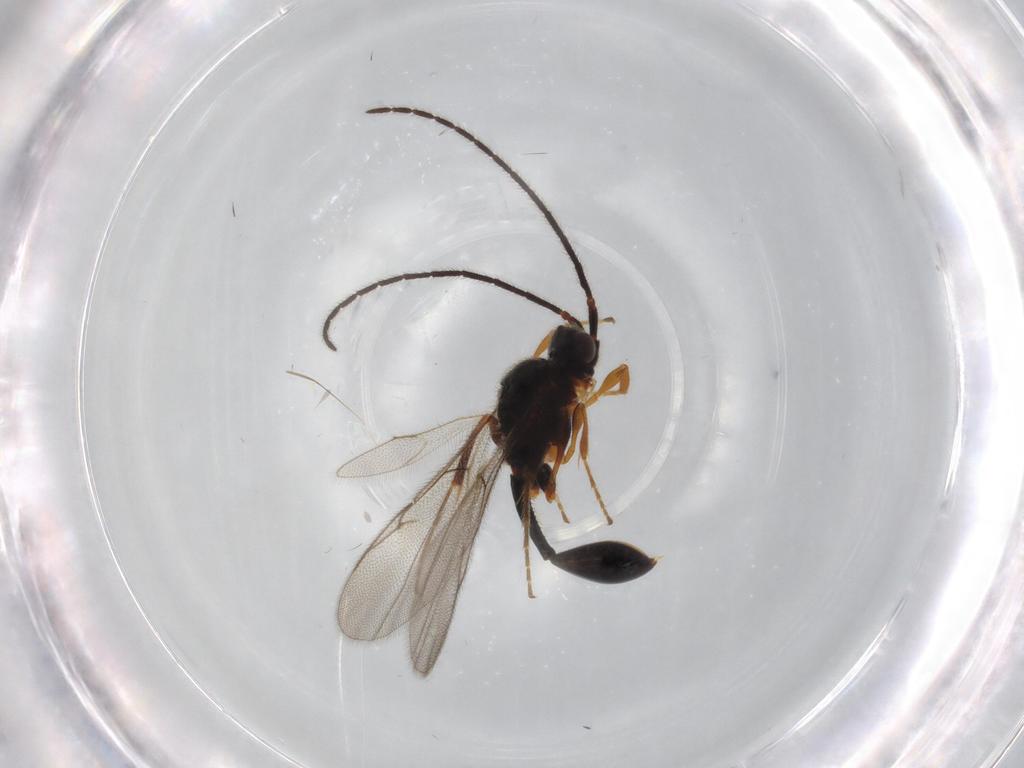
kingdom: Animalia
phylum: Arthropoda
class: Insecta
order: Hymenoptera
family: Diapriidae
